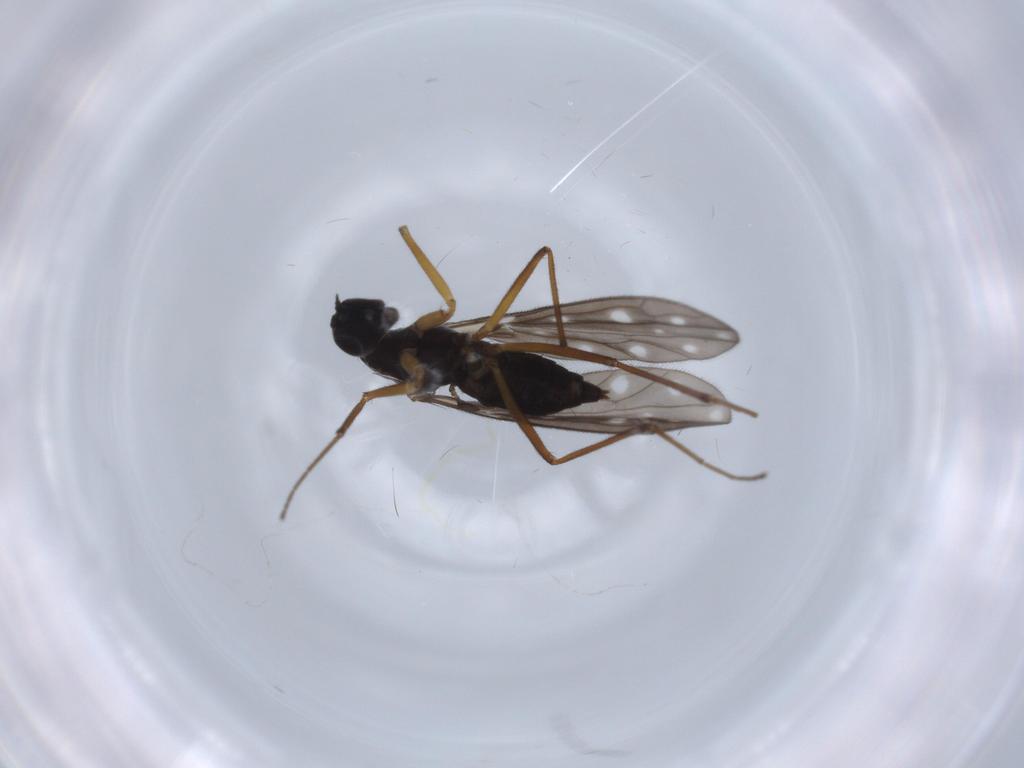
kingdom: Animalia
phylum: Arthropoda
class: Insecta
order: Diptera
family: Empididae
